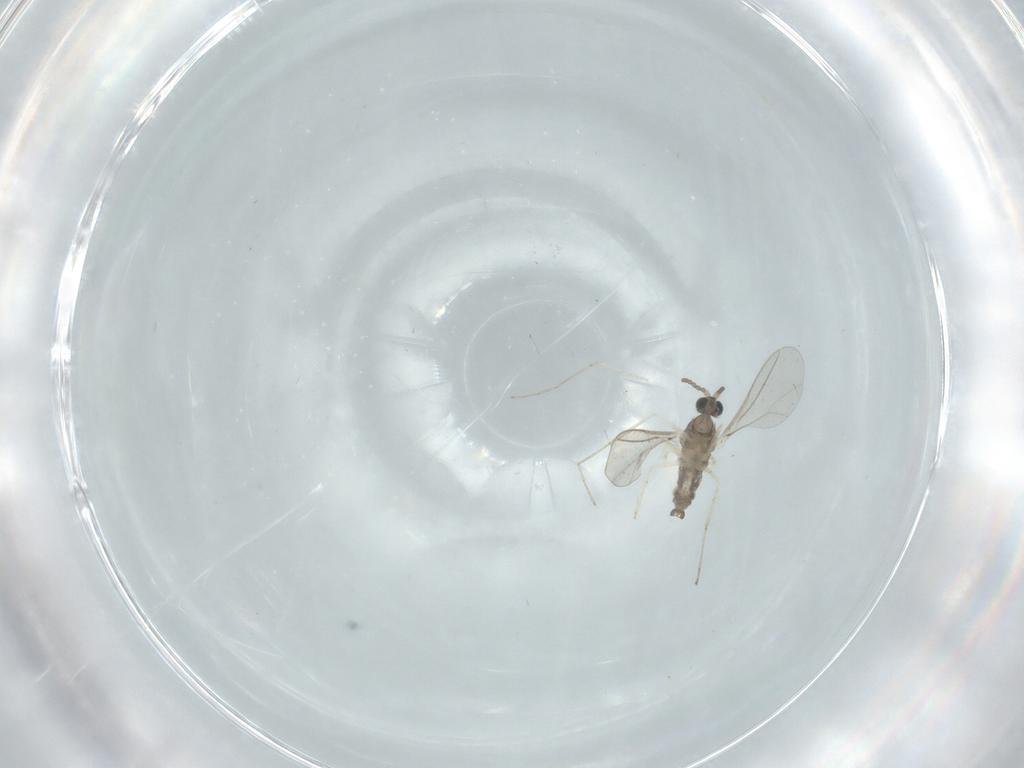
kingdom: Animalia
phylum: Arthropoda
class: Insecta
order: Diptera
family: Cecidomyiidae
